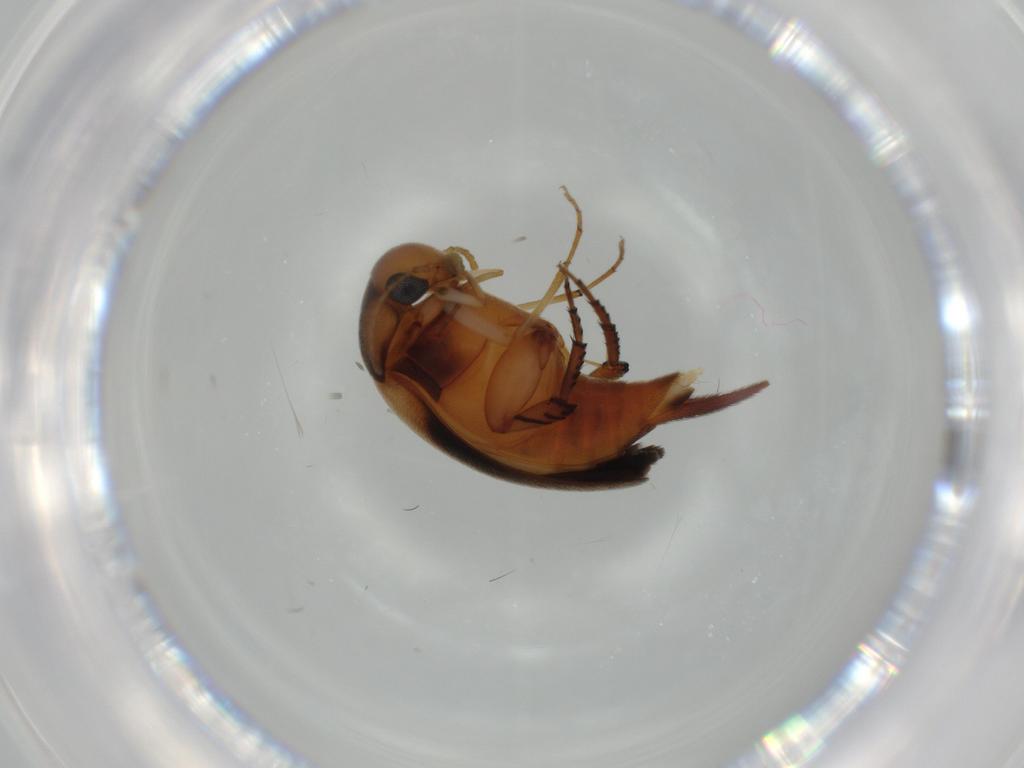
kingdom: Animalia
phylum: Arthropoda
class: Insecta
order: Coleoptera
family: Mordellidae
